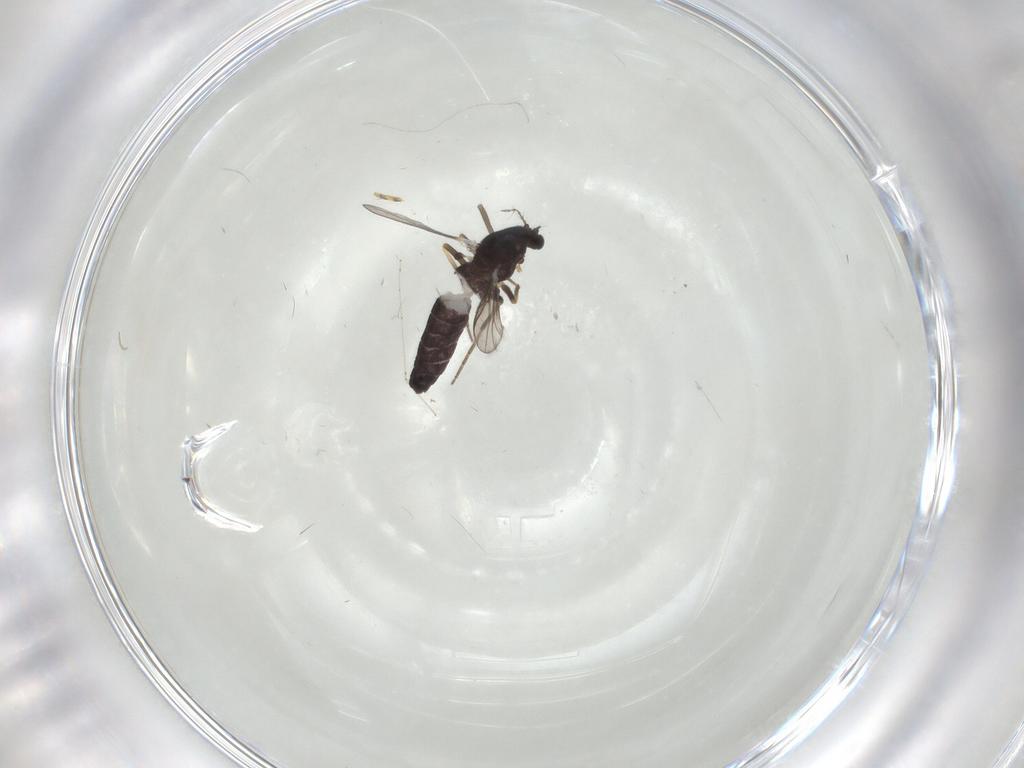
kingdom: Animalia
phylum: Arthropoda
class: Insecta
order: Diptera
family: Chironomidae
